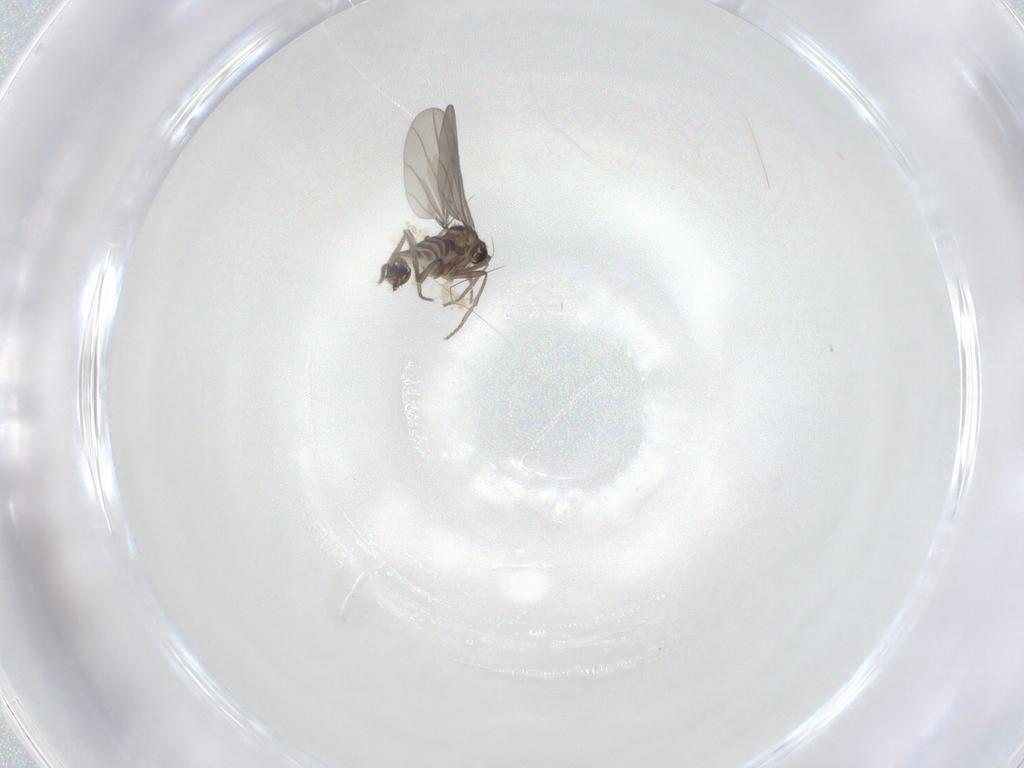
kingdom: Animalia
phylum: Arthropoda
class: Insecta
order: Diptera
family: Phoridae
